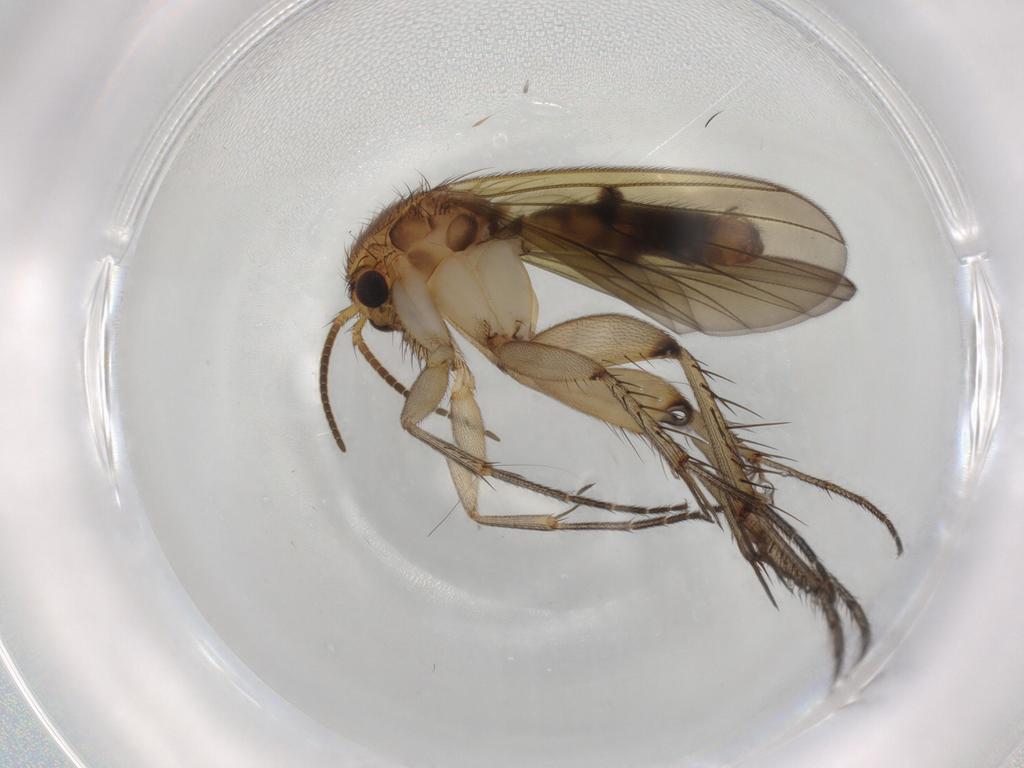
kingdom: Animalia
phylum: Arthropoda
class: Insecta
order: Diptera
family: Mycetophilidae
